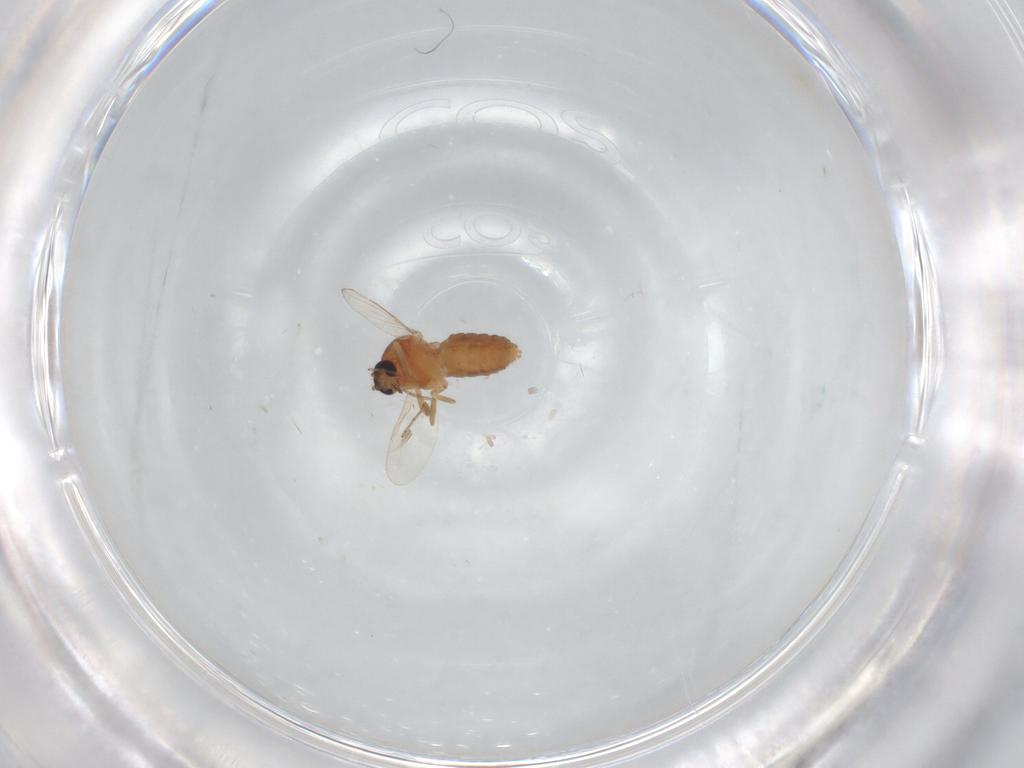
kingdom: Animalia
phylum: Arthropoda
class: Insecta
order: Diptera
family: Ceratopogonidae
